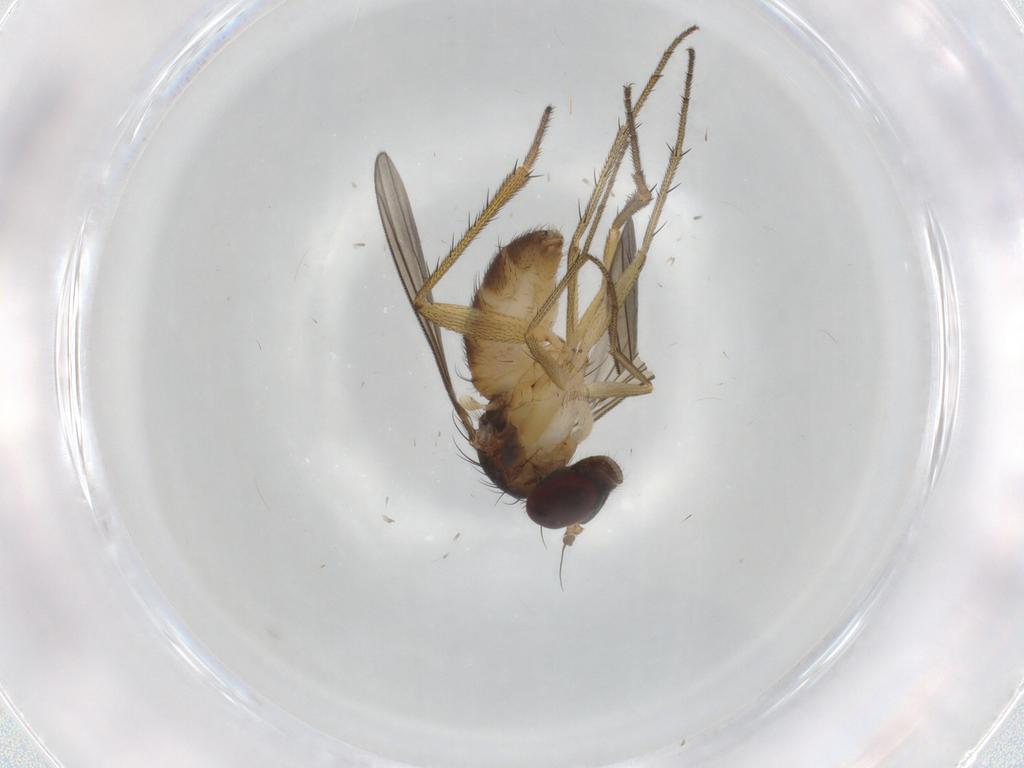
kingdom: Animalia
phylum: Arthropoda
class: Insecta
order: Diptera
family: Dolichopodidae
